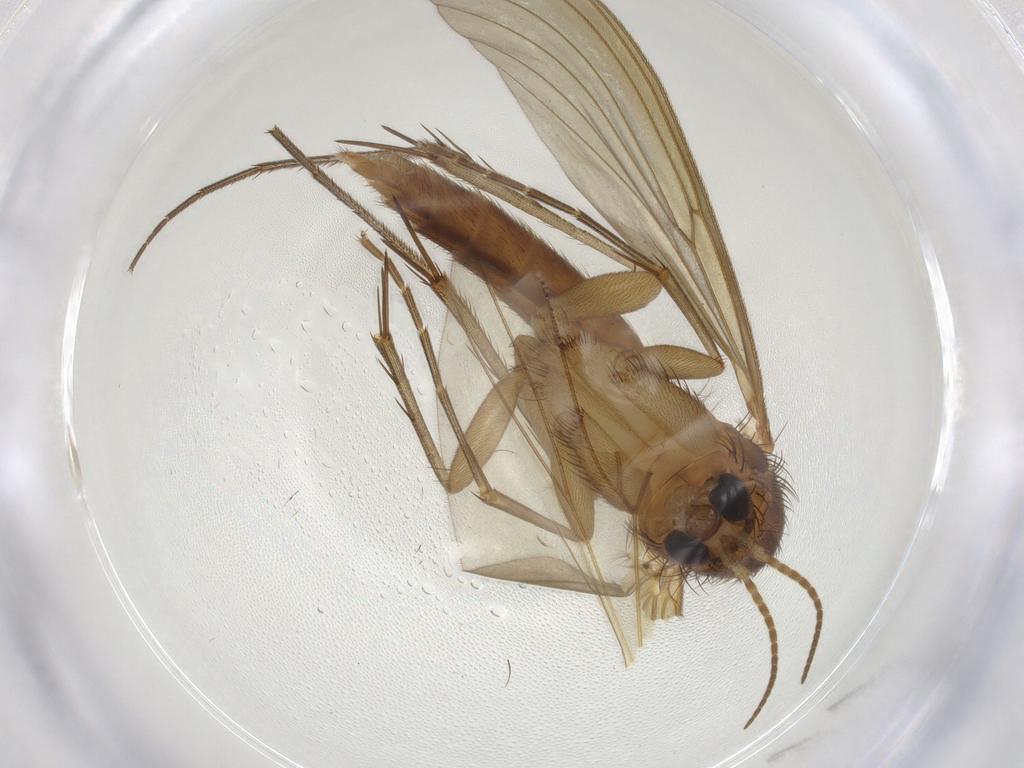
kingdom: Animalia
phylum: Arthropoda
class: Insecta
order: Diptera
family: Mycetophilidae
